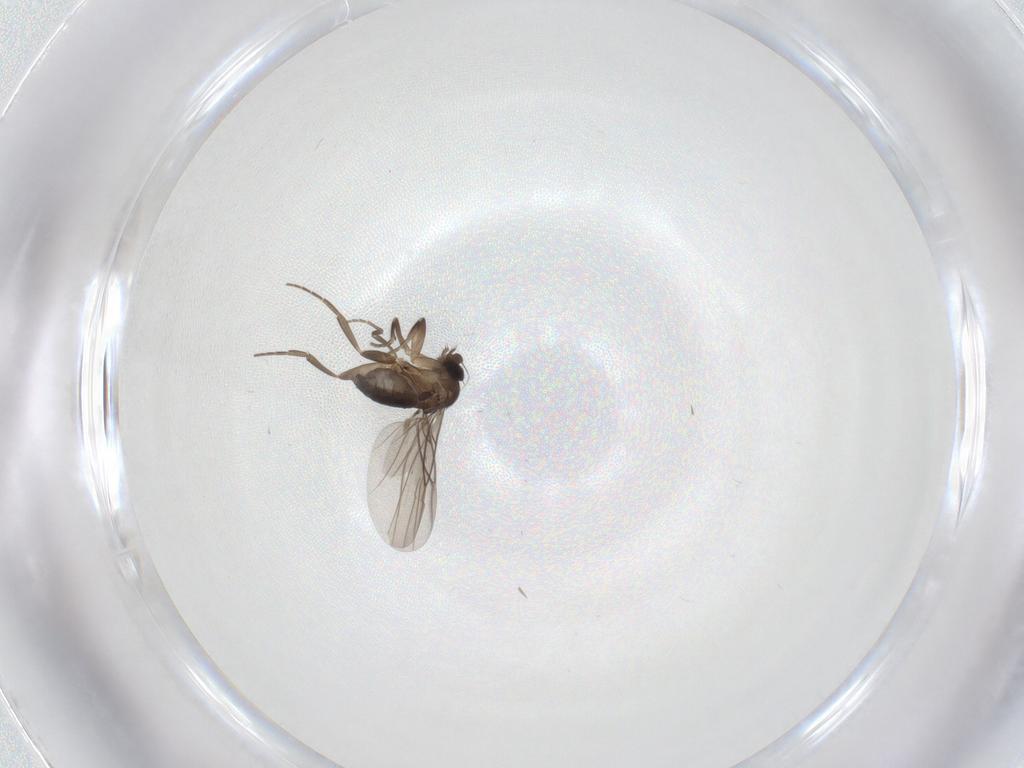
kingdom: Animalia
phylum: Arthropoda
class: Insecta
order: Diptera
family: Phoridae
